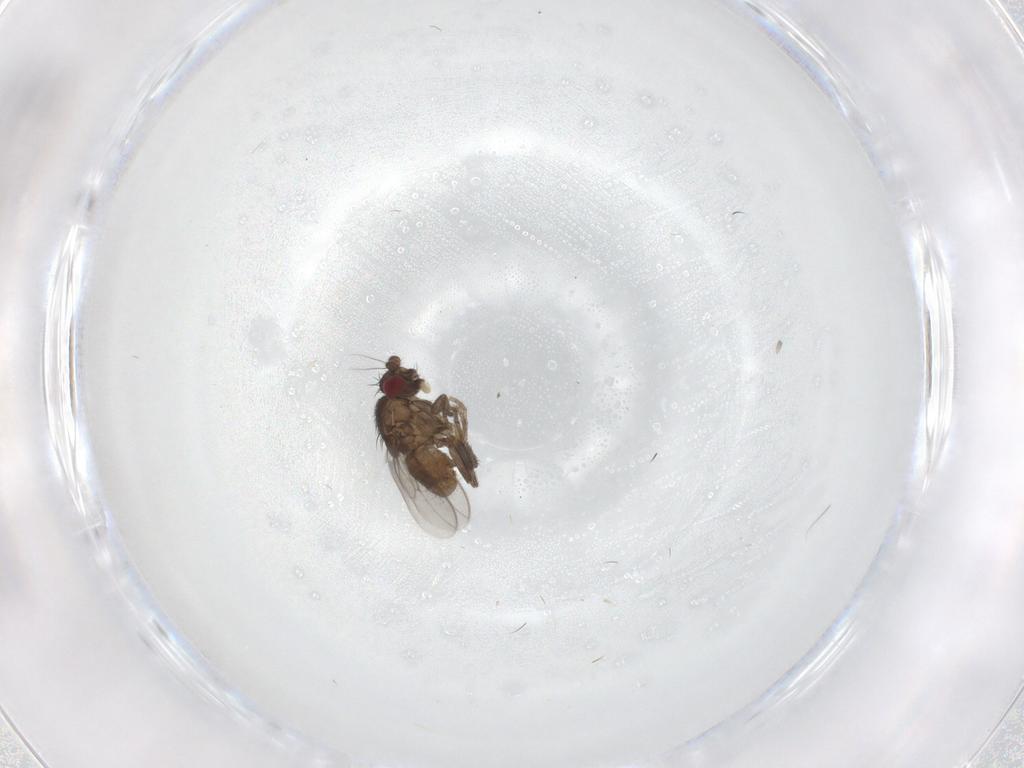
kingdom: Animalia
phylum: Arthropoda
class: Insecta
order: Diptera
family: Sphaeroceridae
